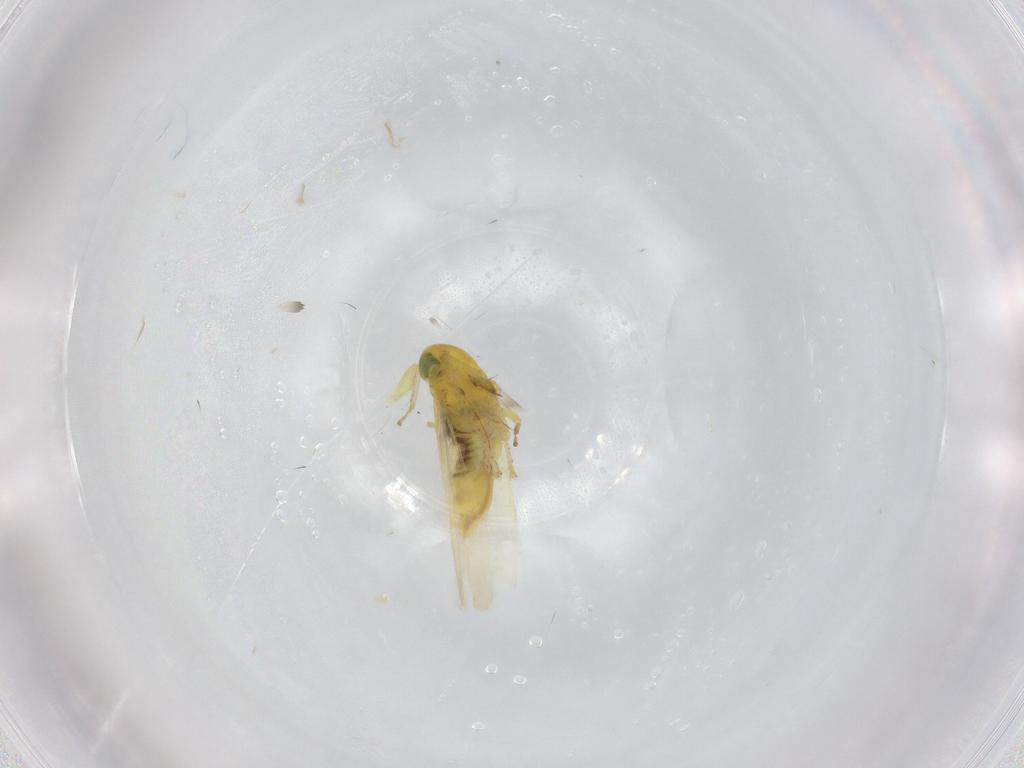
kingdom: Animalia
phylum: Arthropoda
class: Insecta
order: Hemiptera
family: Cicadellidae
